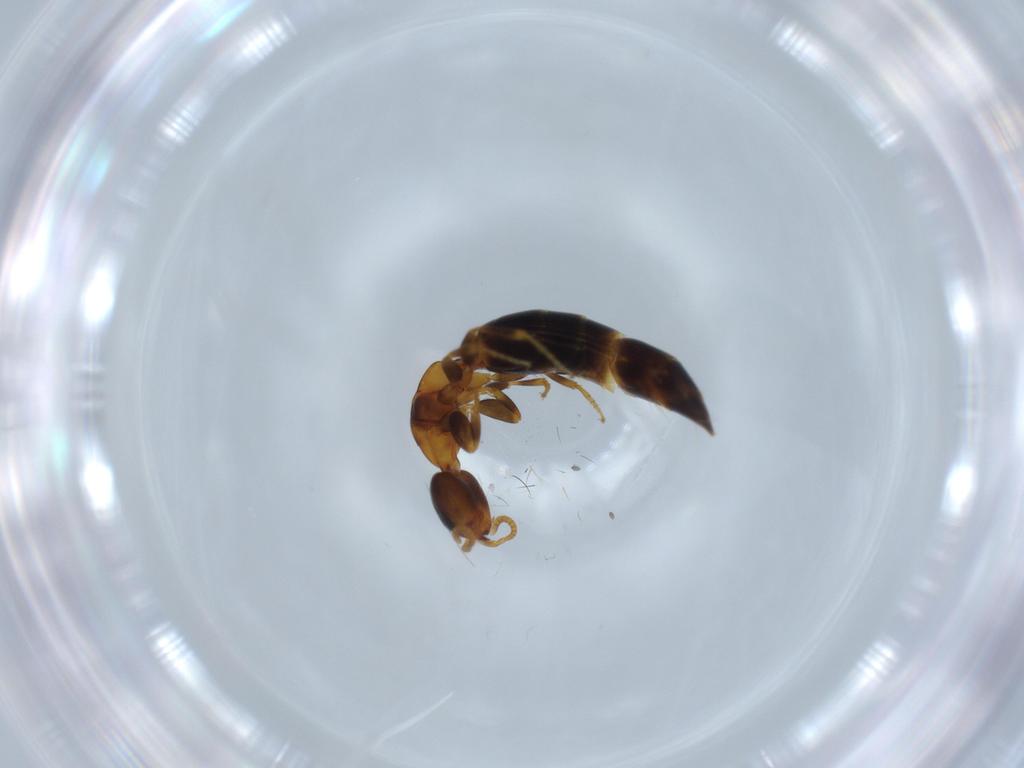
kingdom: Animalia
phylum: Arthropoda
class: Insecta
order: Hymenoptera
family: Bethylidae
